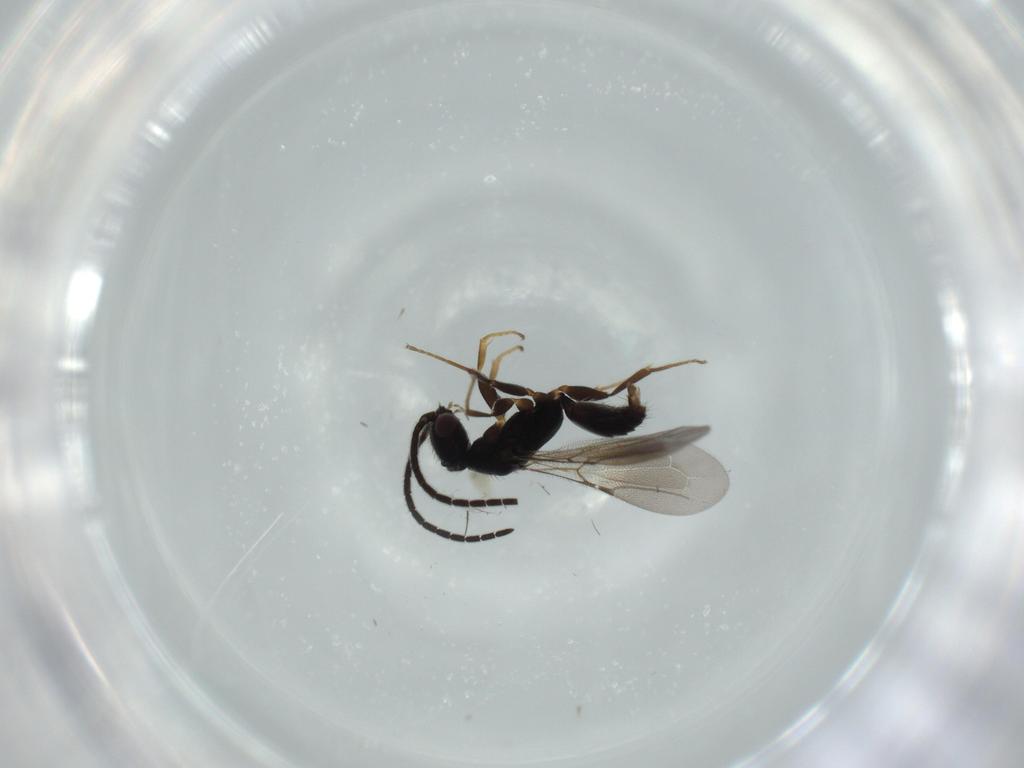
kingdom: Animalia
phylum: Arthropoda
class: Insecta
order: Hymenoptera
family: Bethylidae
